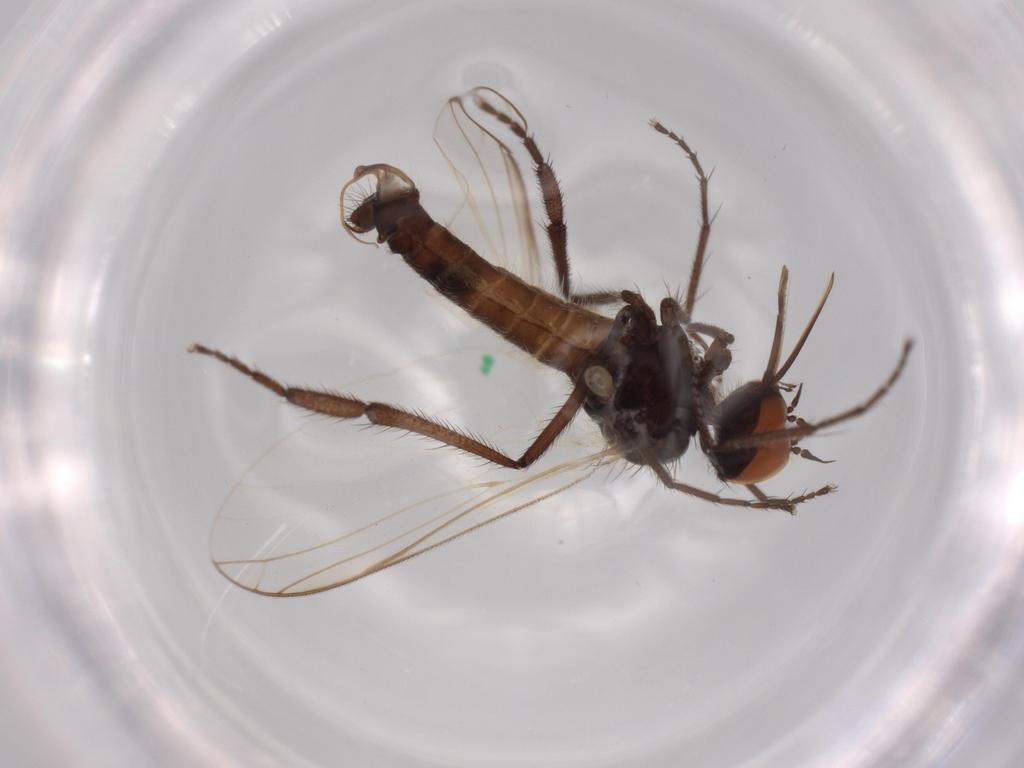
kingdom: Animalia
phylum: Arthropoda
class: Insecta
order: Diptera
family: Empididae
